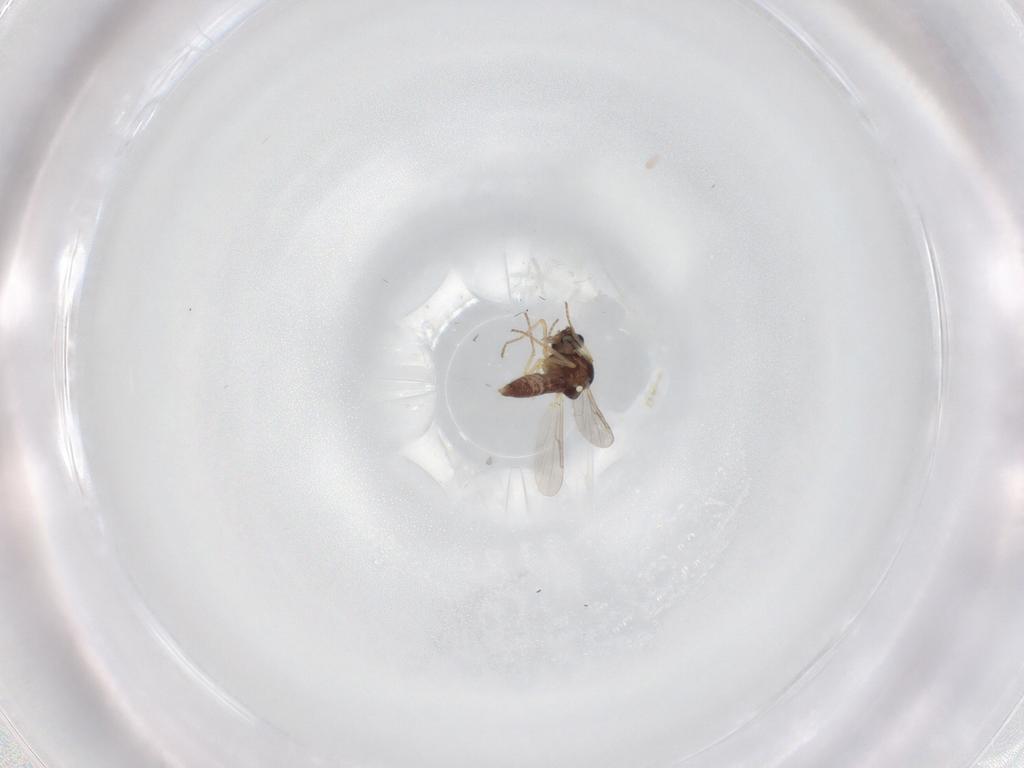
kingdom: Animalia
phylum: Arthropoda
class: Insecta
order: Diptera
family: Ceratopogonidae
